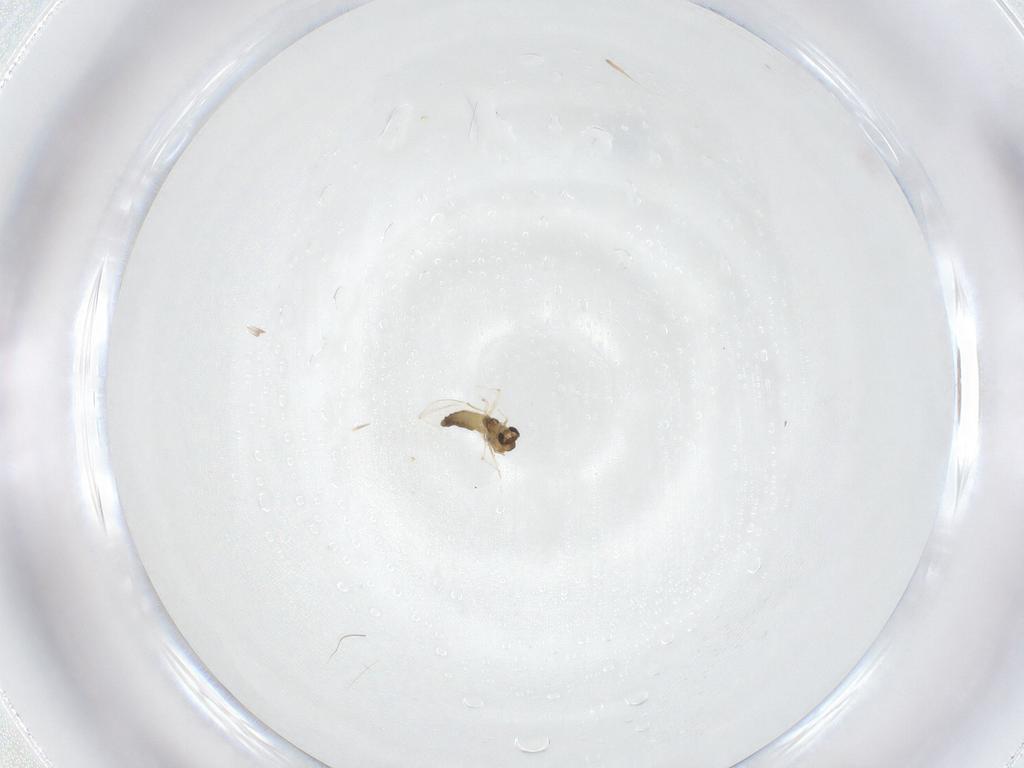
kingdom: Animalia
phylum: Arthropoda
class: Insecta
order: Diptera
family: Chironomidae
